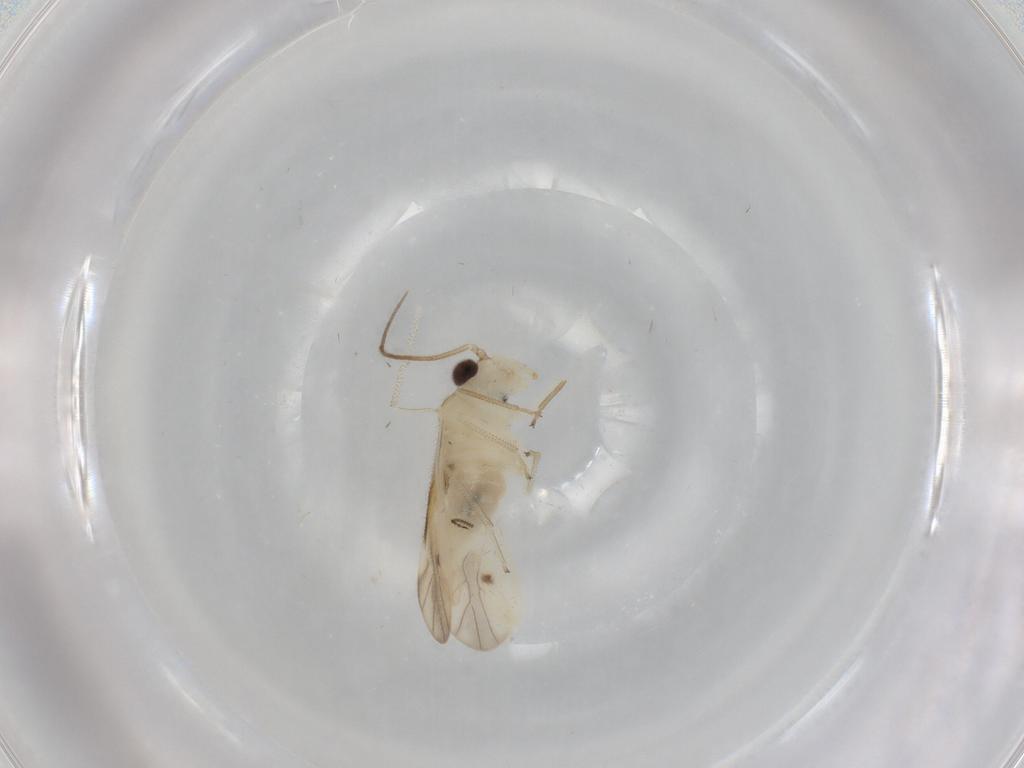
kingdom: Animalia
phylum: Arthropoda
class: Insecta
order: Psocodea
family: Caeciliusidae
